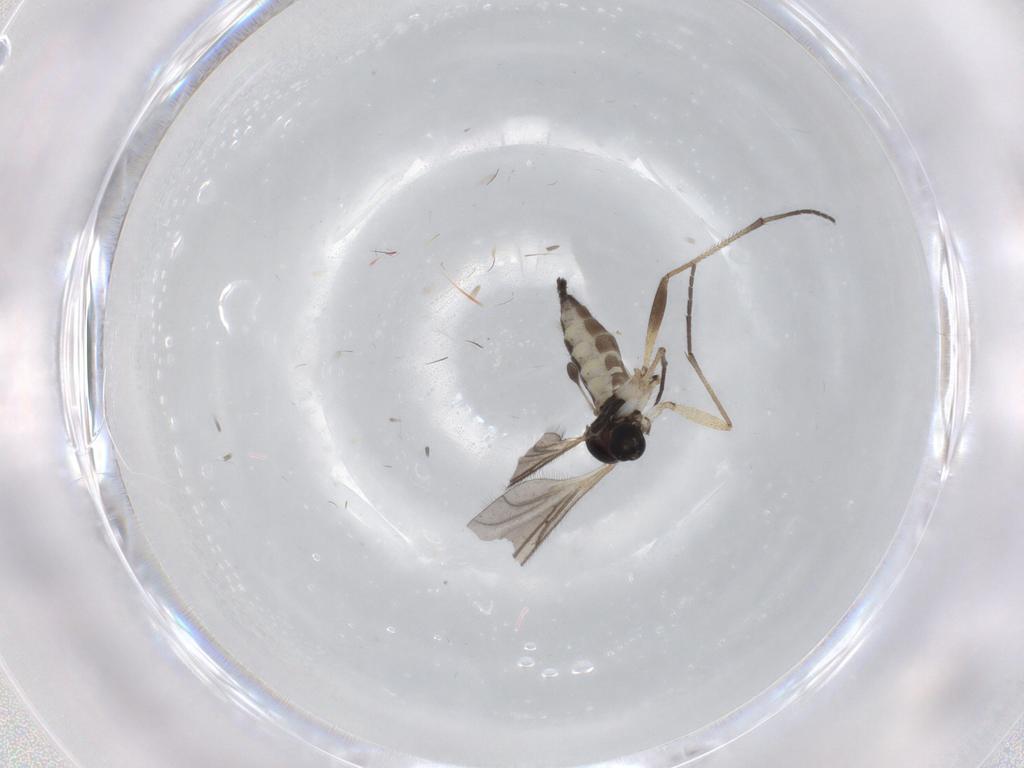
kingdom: Animalia
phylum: Arthropoda
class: Insecta
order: Diptera
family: Sciaridae
